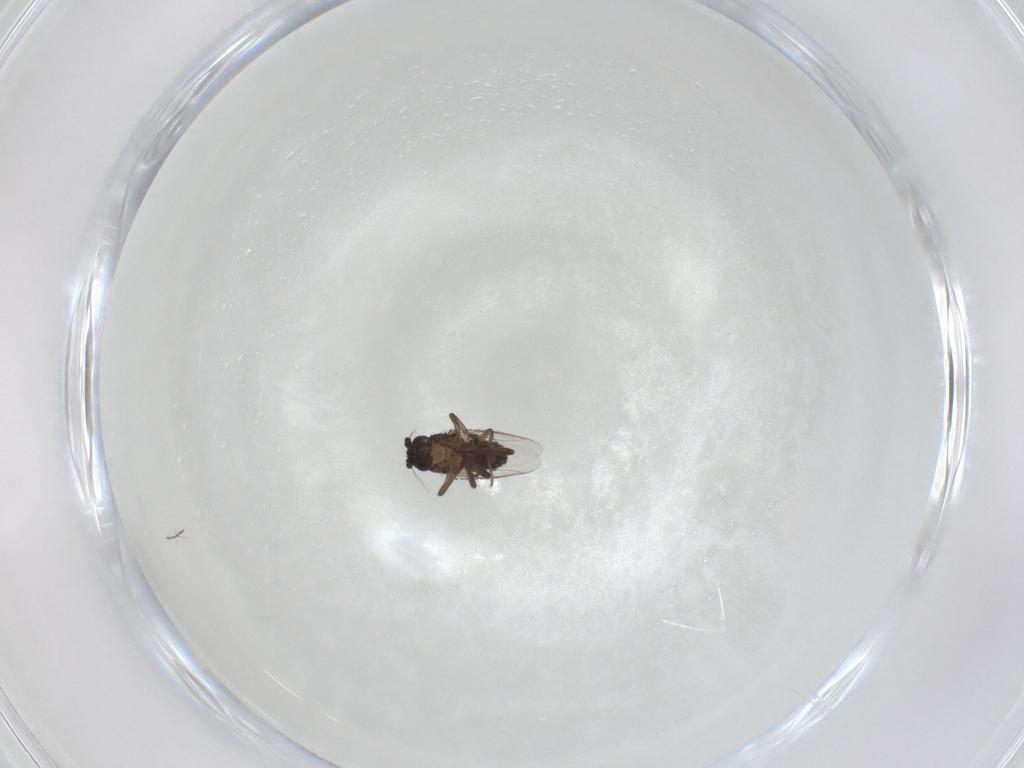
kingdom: Animalia
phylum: Arthropoda
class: Insecta
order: Diptera
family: Sphaeroceridae
